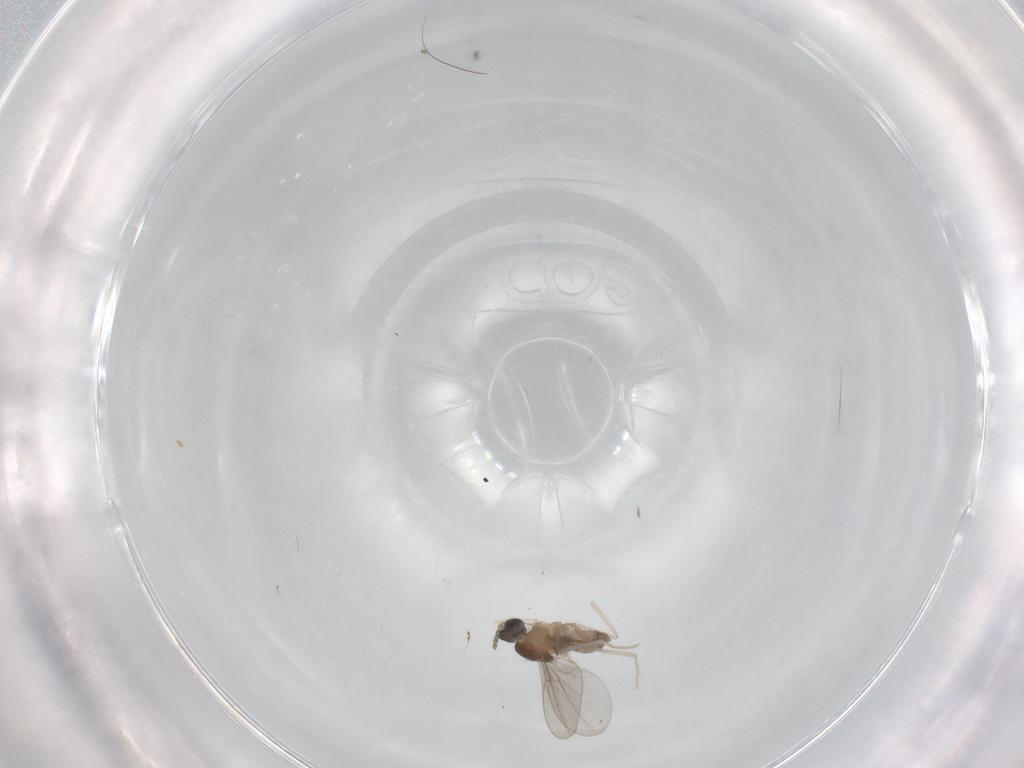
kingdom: Animalia
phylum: Arthropoda
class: Insecta
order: Diptera
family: Cecidomyiidae
